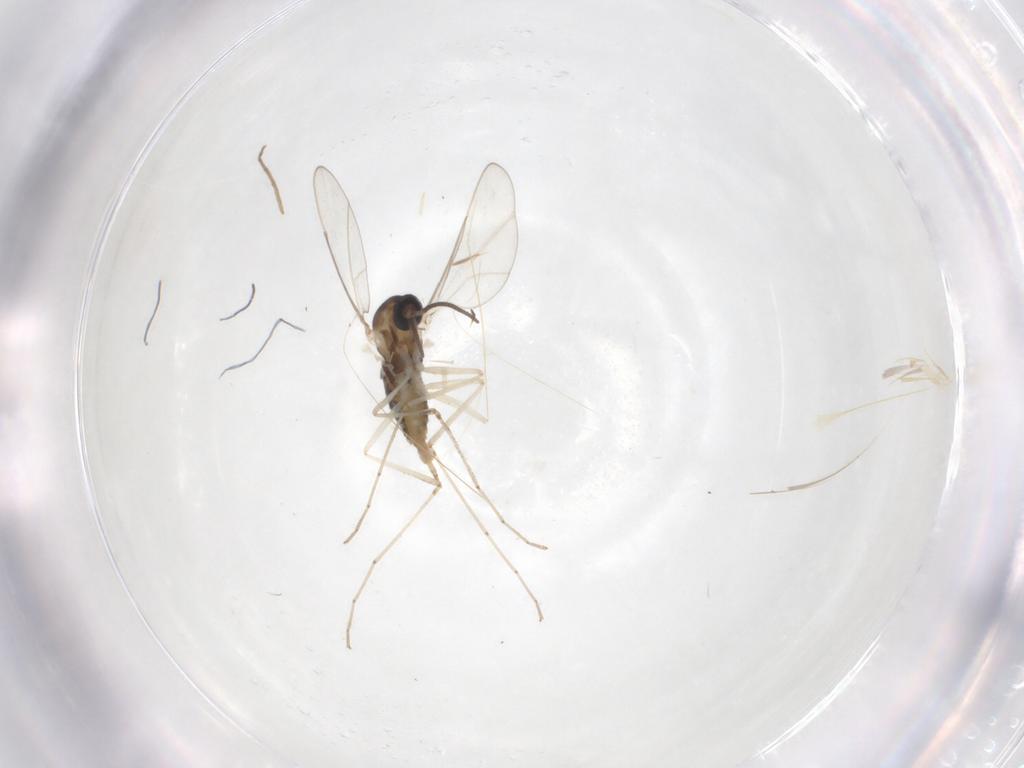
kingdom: Animalia
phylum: Arthropoda
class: Insecta
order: Diptera
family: Cecidomyiidae
